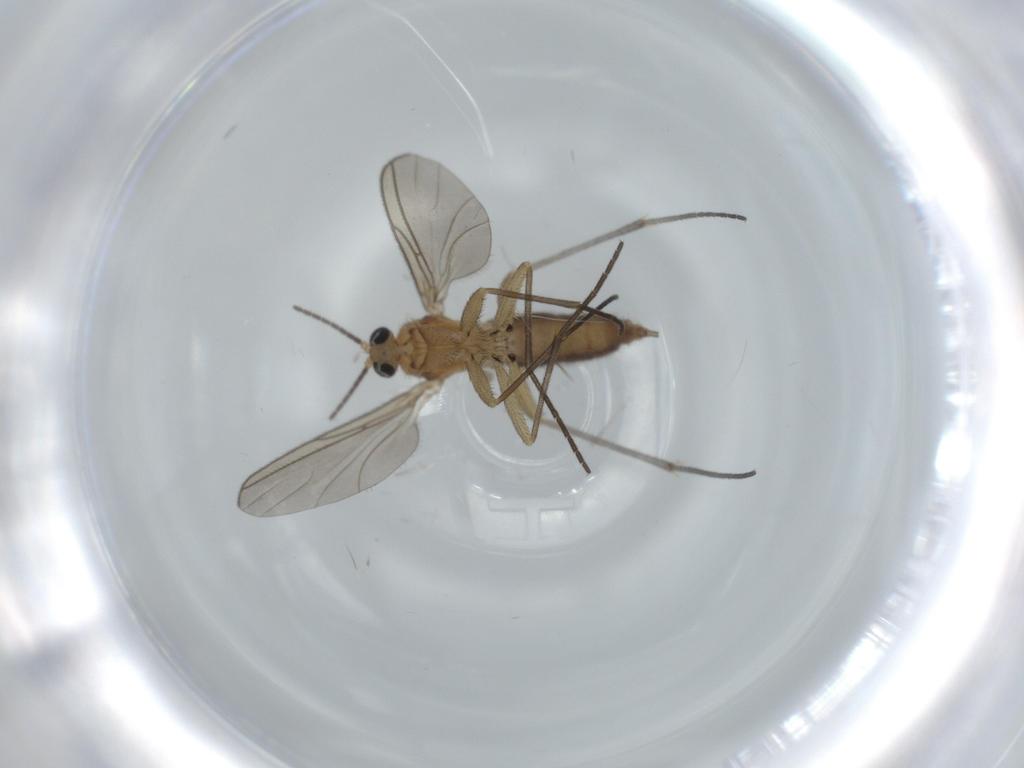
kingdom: Animalia
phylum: Arthropoda
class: Insecta
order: Diptera
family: Sciaridae
